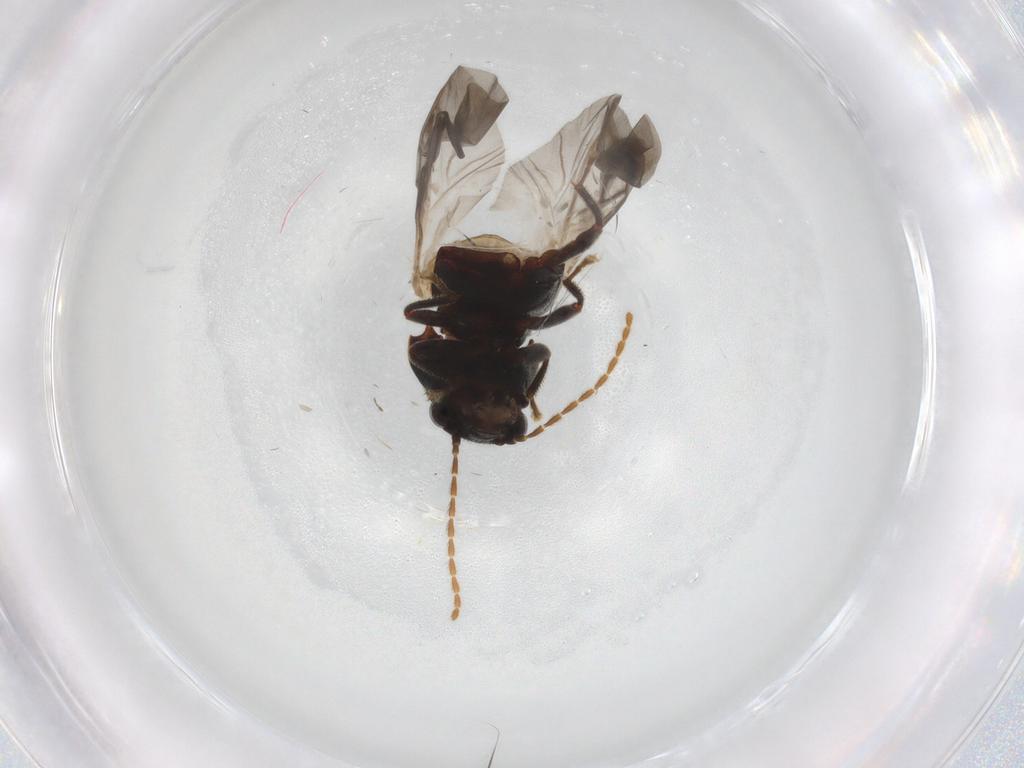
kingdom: Animalia
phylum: Arthropoda
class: Insecta
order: Coleoptera
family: Ptilodactylidae
